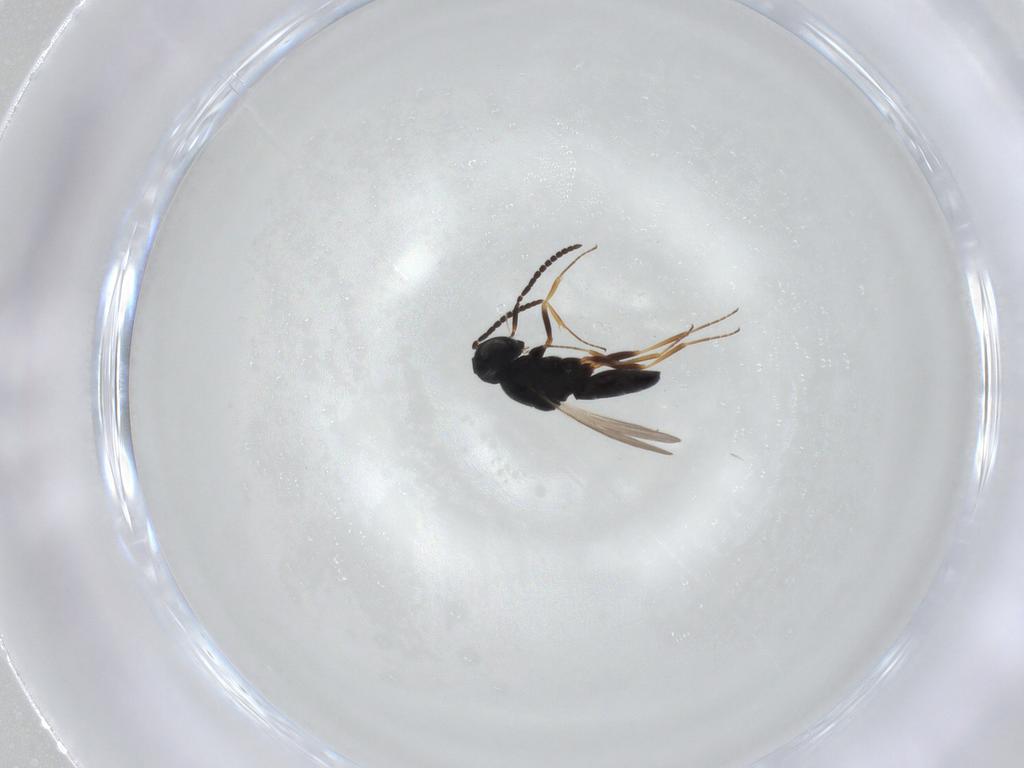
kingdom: Animalia
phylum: Arthropoda
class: Insecta
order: Hymenoptera
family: Scelionidae
